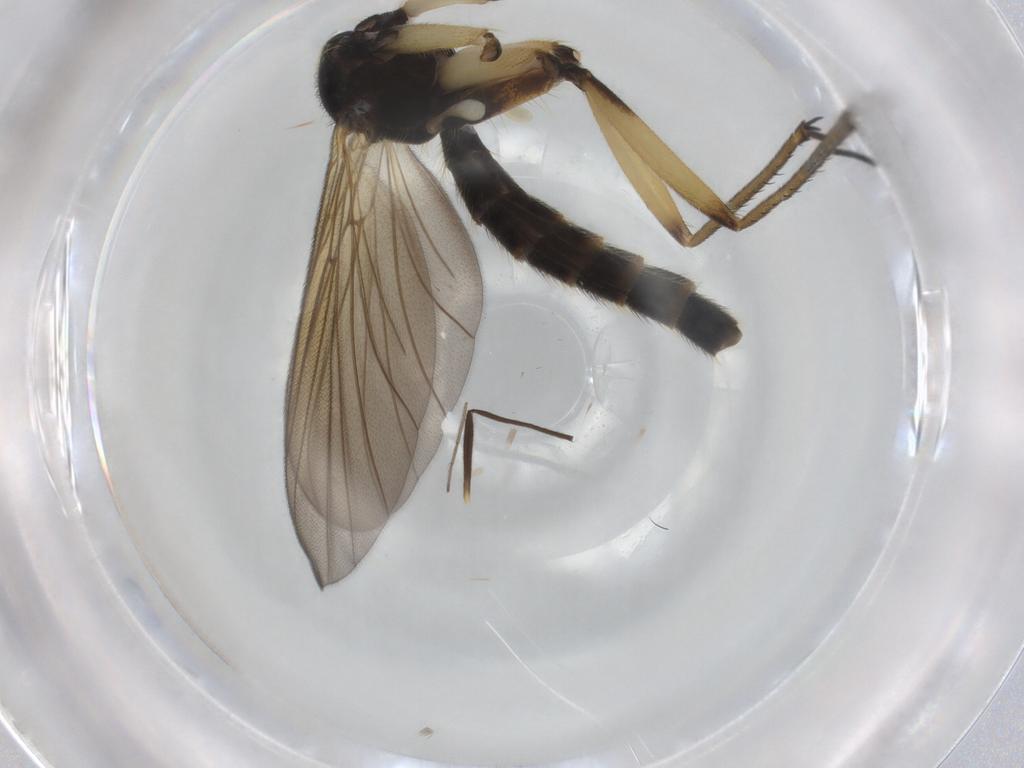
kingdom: Animalia
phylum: Arthropoda
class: Insecta
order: Diptera
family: Mycetophilidae
